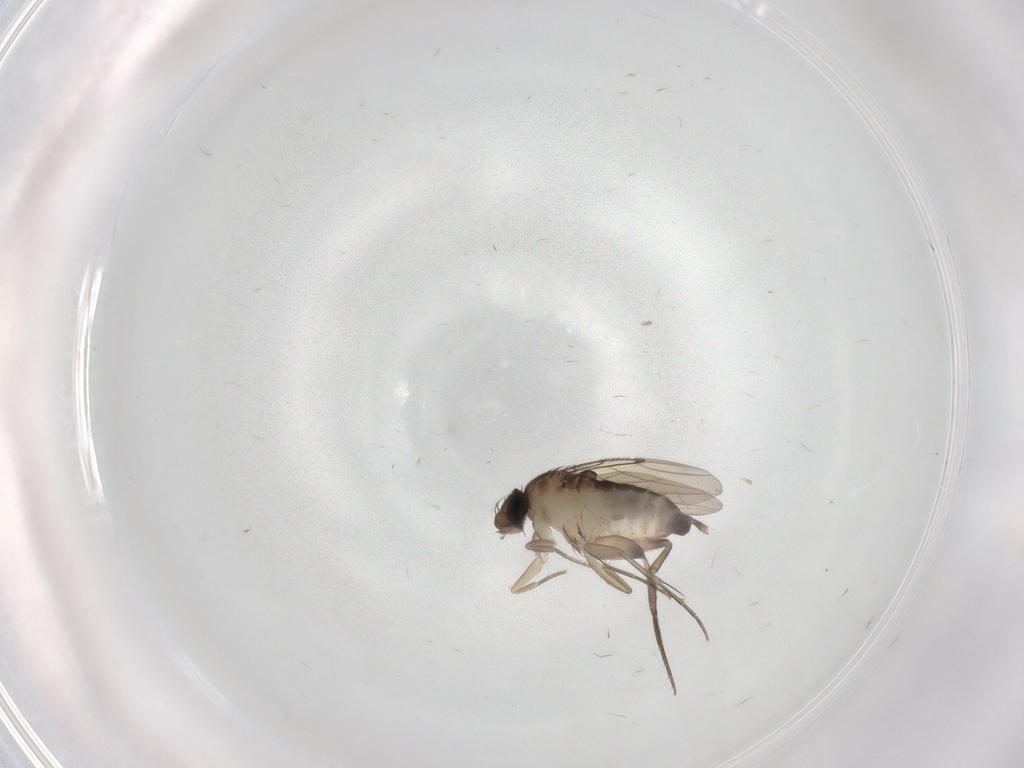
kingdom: Animalia
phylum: Arthropoda
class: Insecta
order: Diptera
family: Phoridae
